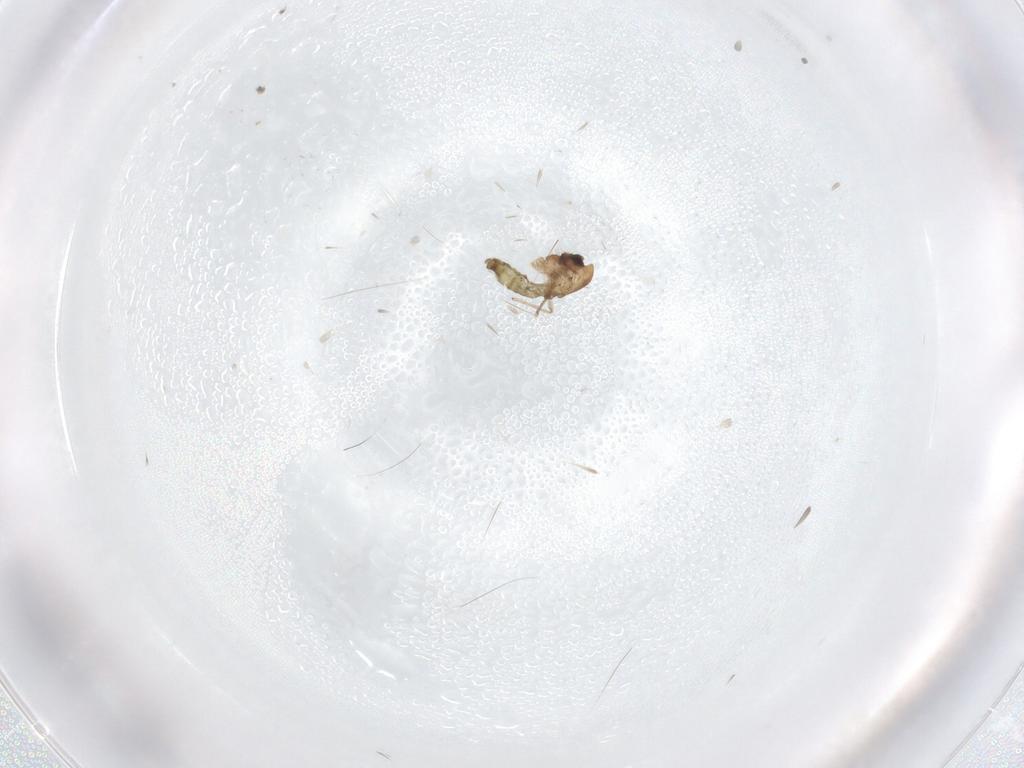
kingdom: Animalia
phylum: Arthropoda
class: Insecta
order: Diptera
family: Chironomidae
